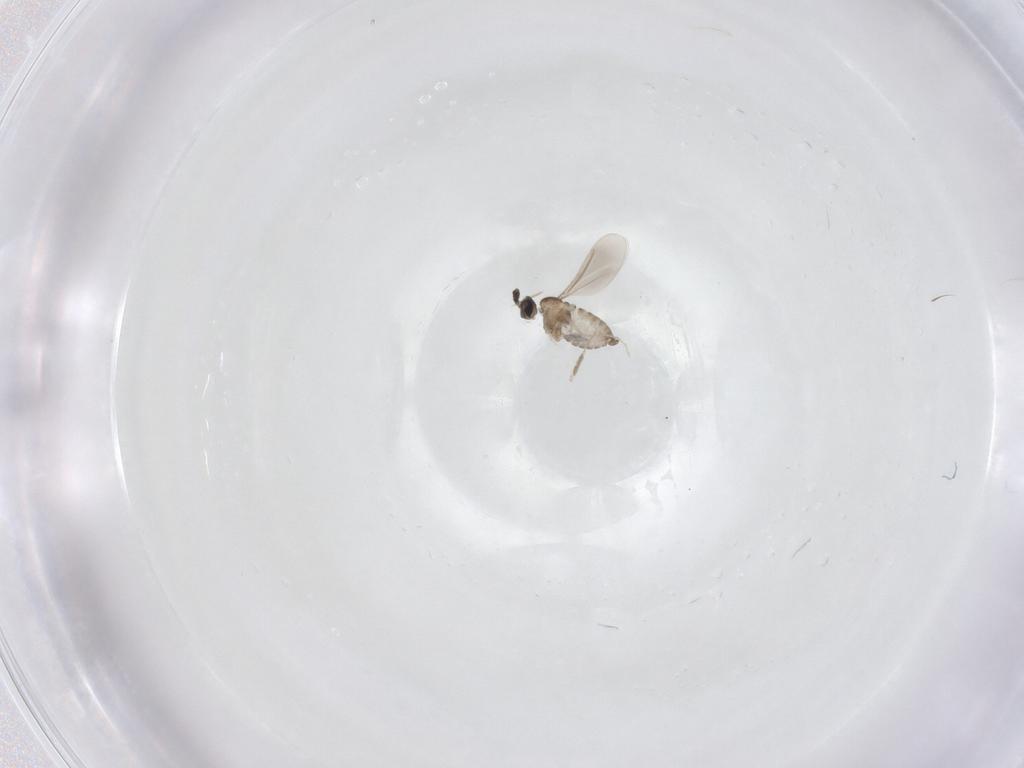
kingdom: Animalia
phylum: Arthropoda
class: Insecta
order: Diptera
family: Cecidomyiidae
